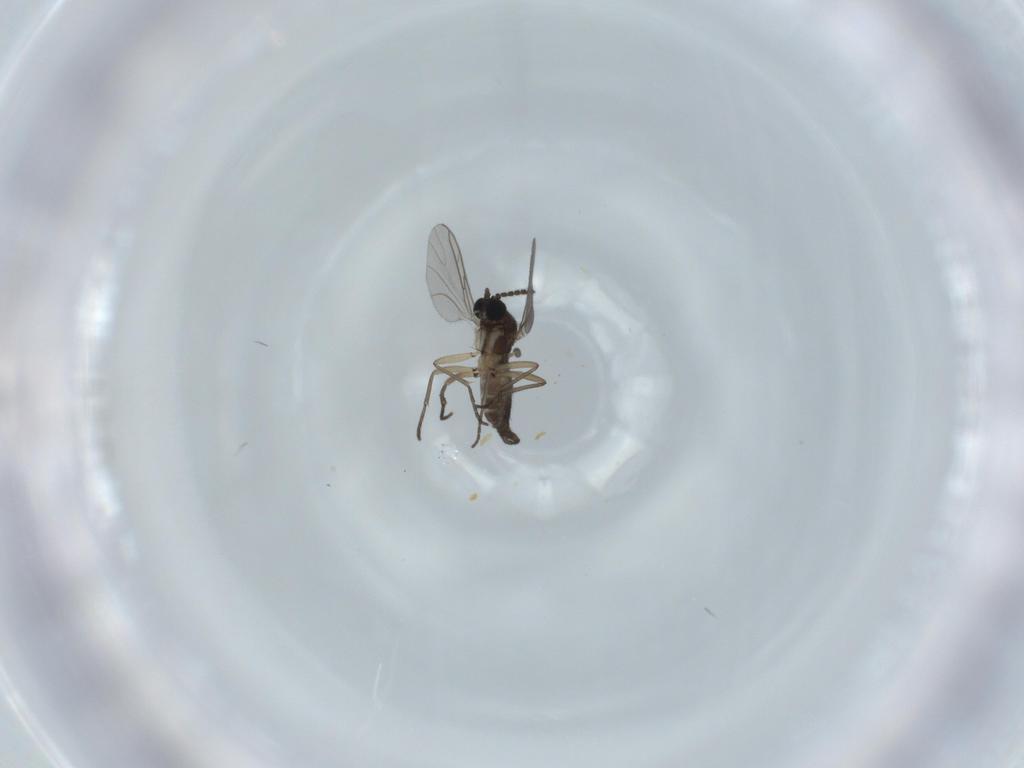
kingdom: Animalia
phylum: Arthropoda
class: Insecta
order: Diptera
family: Sciaridae
